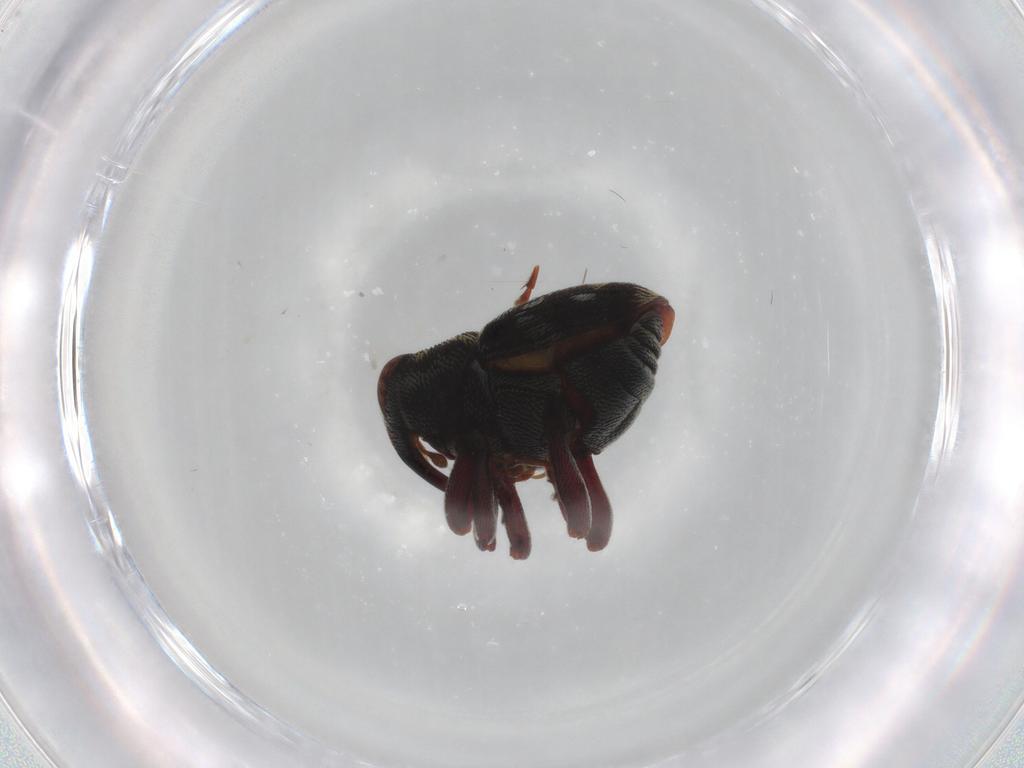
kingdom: Animalia
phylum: Arthropoda
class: Insecta
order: Coleoptera
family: Curculionidae
